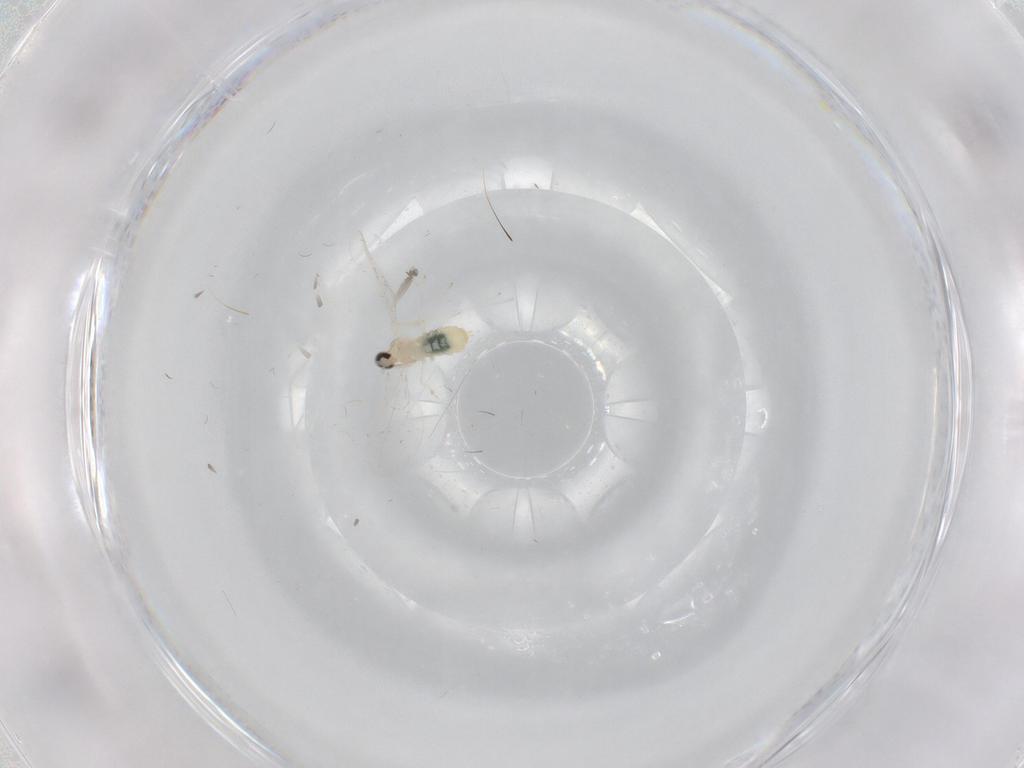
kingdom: Animalia
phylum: Arthropoda
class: Insecta
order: Diptera
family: Cecidomyiidae
